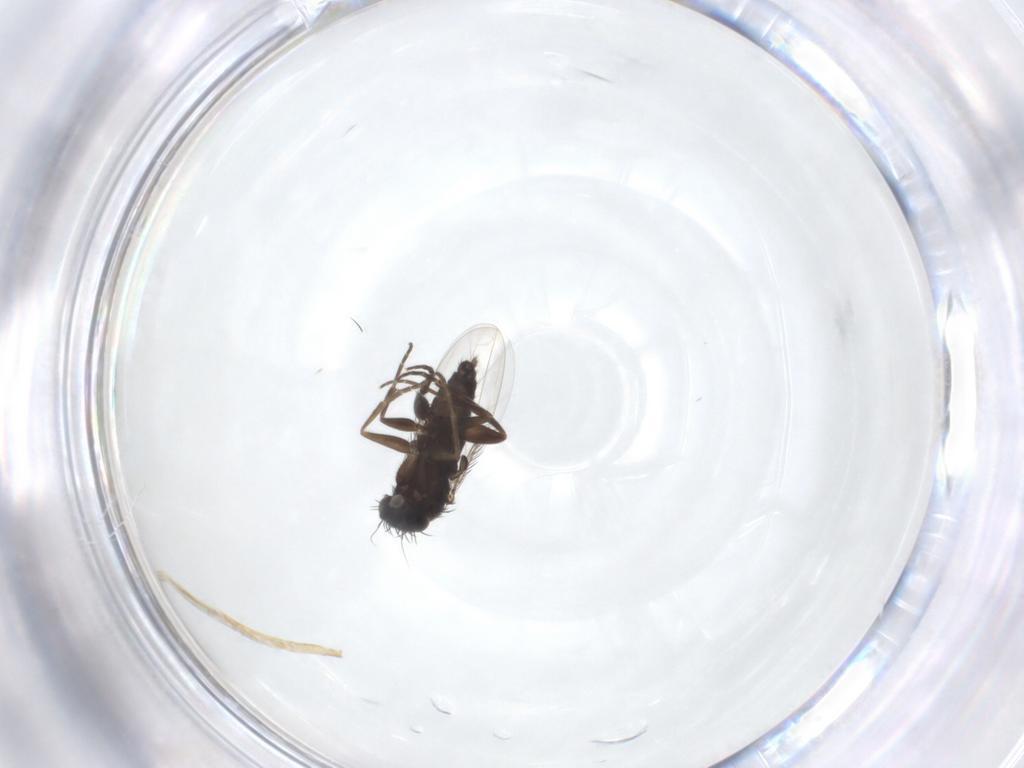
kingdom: Animalia
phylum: Arthropoda
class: Insecta
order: Diptera
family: Phoridae
